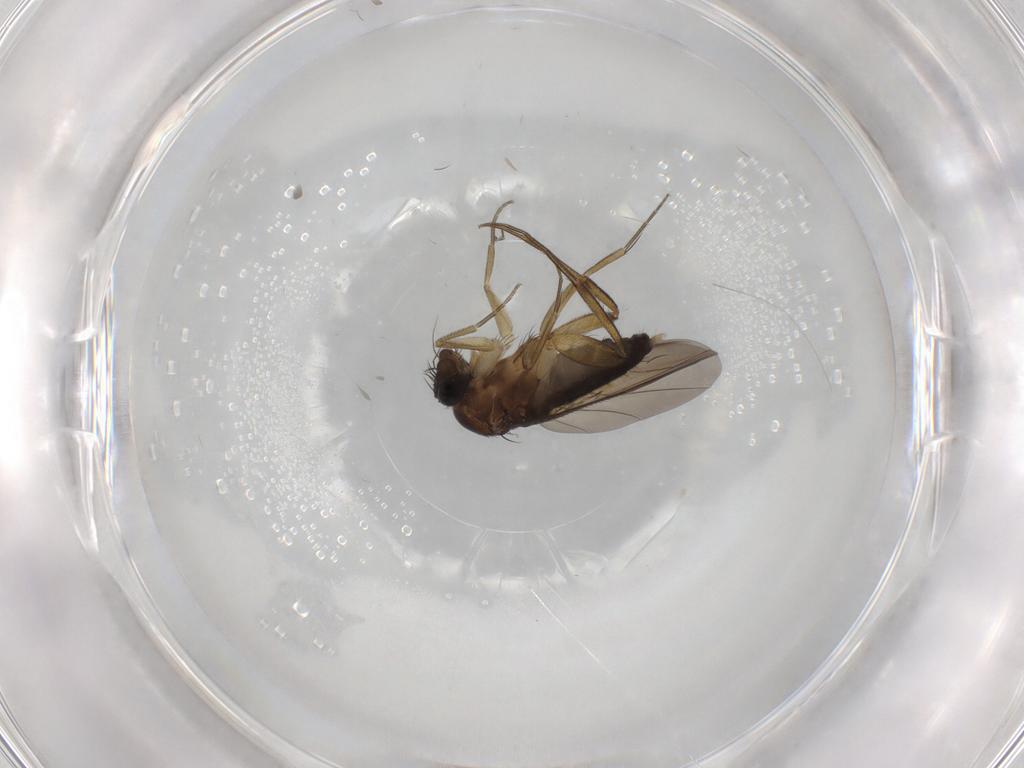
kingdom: Animalia
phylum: Arthropoda
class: Insecta
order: Diptera
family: Phoridae
